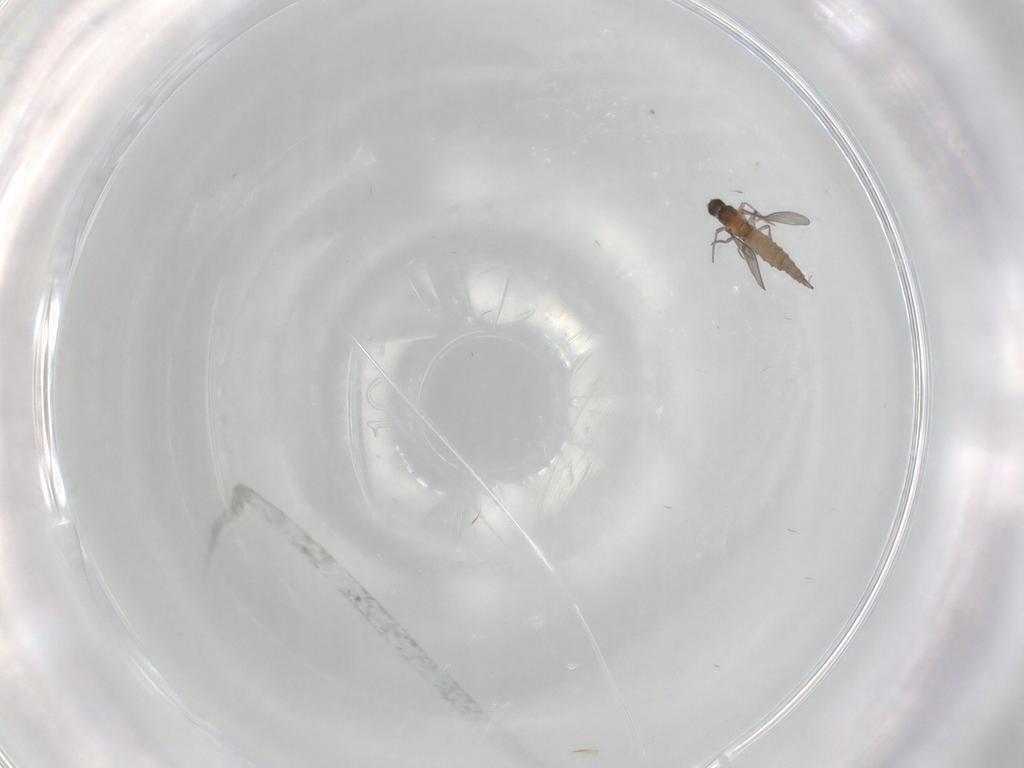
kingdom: Animalia
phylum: Arthropoda
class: Insecta
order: Diptera
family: Cecidomyiidae
